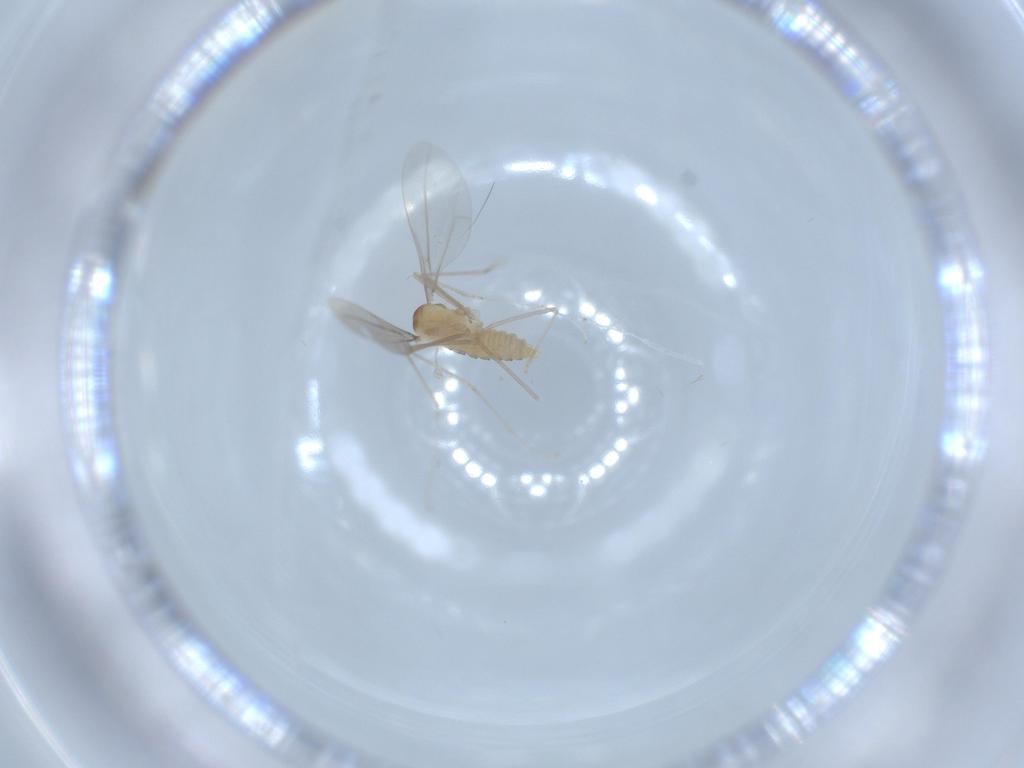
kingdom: Animalia
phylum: Arthropoda
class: Insecta
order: Diptera
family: Cecidomyiidae
